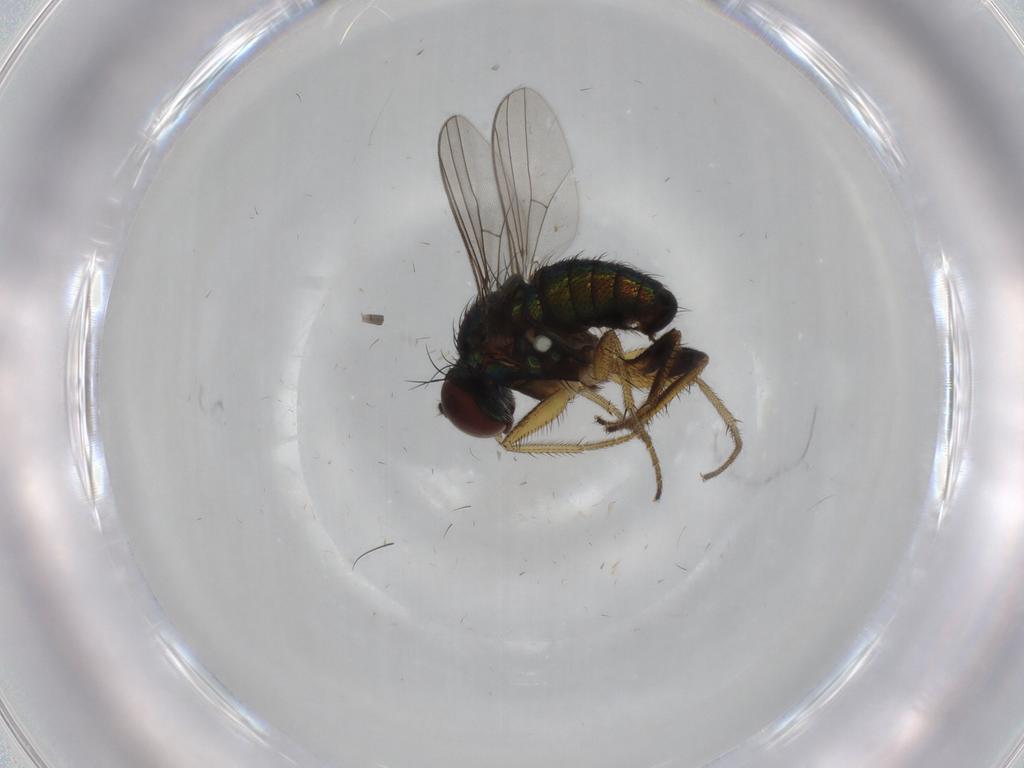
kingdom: Animalia
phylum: Arthropoda
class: Insecta
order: Diptera
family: Dolichopodidae
